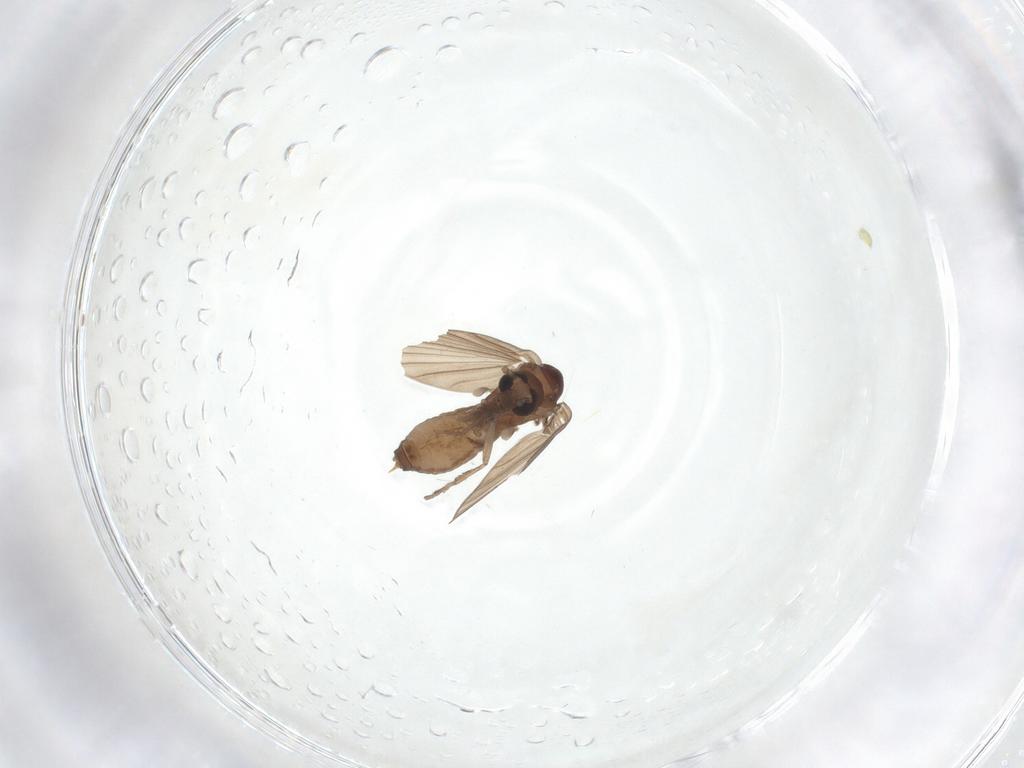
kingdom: Animalia
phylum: Arthropoda
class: Insecta
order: Diptera
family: Psychodidae
